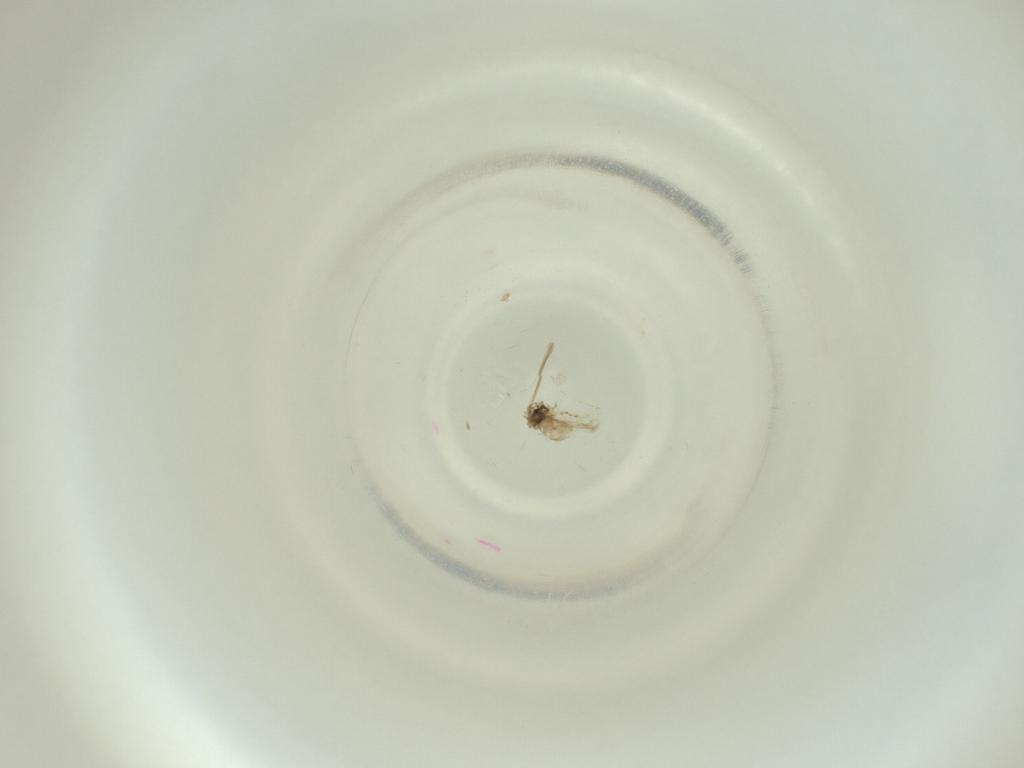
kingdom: Animalia
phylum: Arthropoda
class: Insecta
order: Diptera
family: Cecidomyiidae
